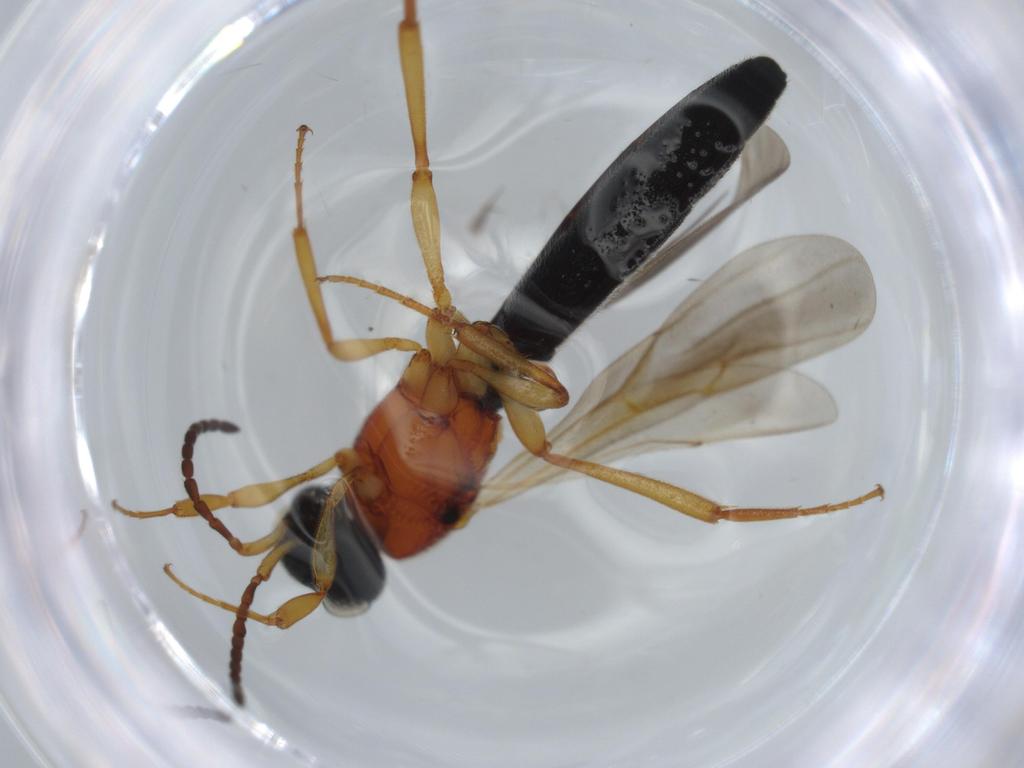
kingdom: Animalia
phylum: Arthropoda
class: Insecta
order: Hymenoptera
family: Scelionidae
